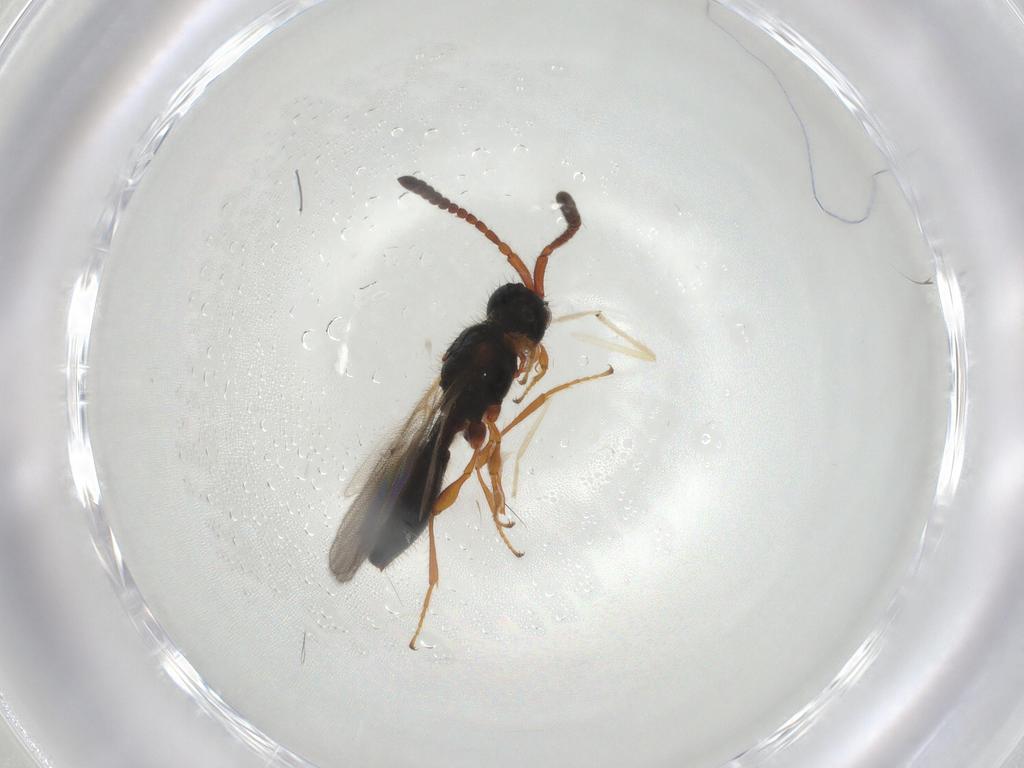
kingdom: Animalia
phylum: Arthropoda
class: Insecta
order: Hymenoptera
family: Diapriidae
